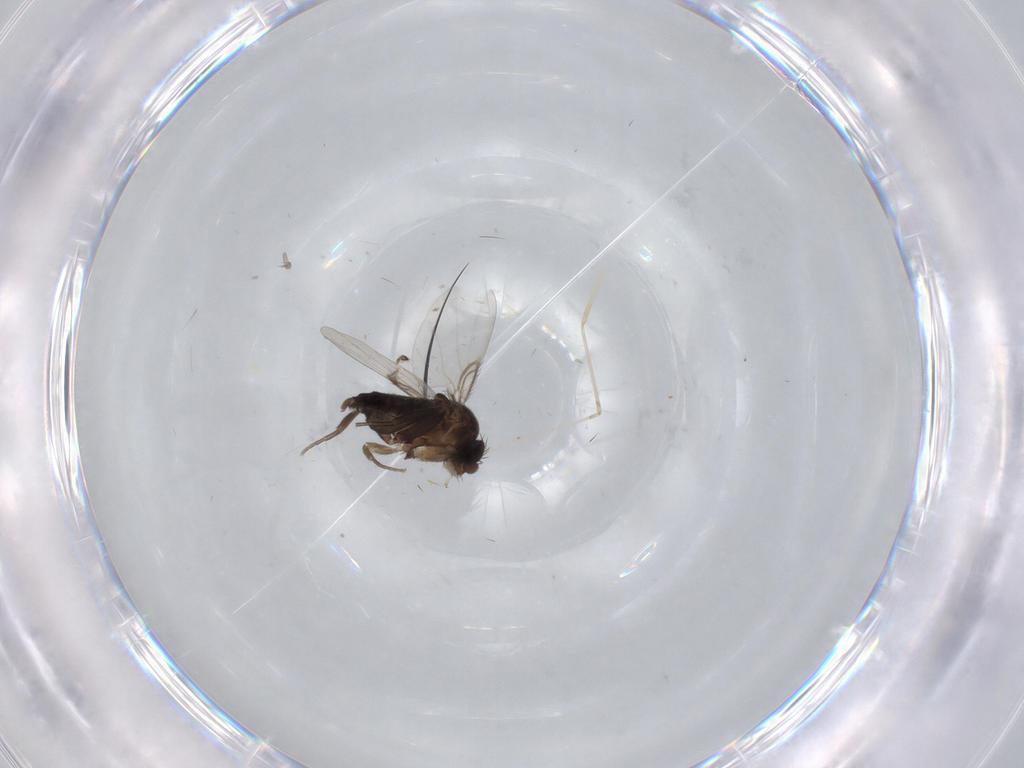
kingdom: Animalia
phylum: Arthropoda
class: Insecta
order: Diptera
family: Phoridae
